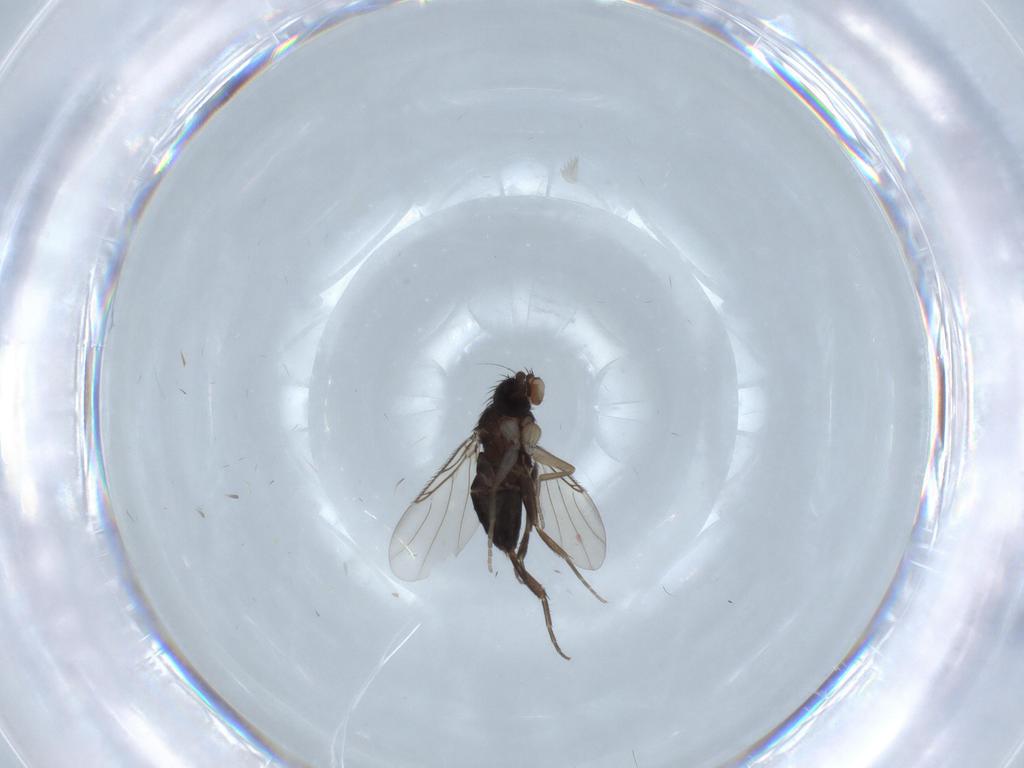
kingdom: Animalia
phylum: Arthropoda
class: Insecta
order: Diptera
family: Phoridae
